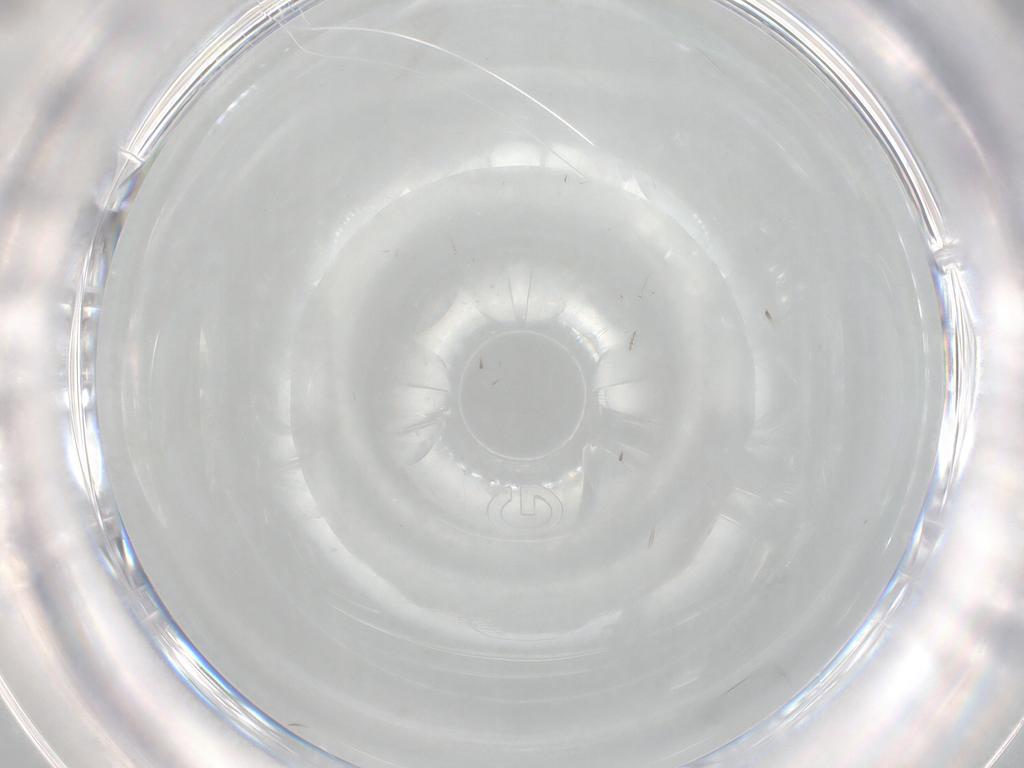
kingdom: Animalia
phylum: Arthropoda
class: Insecta
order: Diptera
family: Cecidomyiidae
